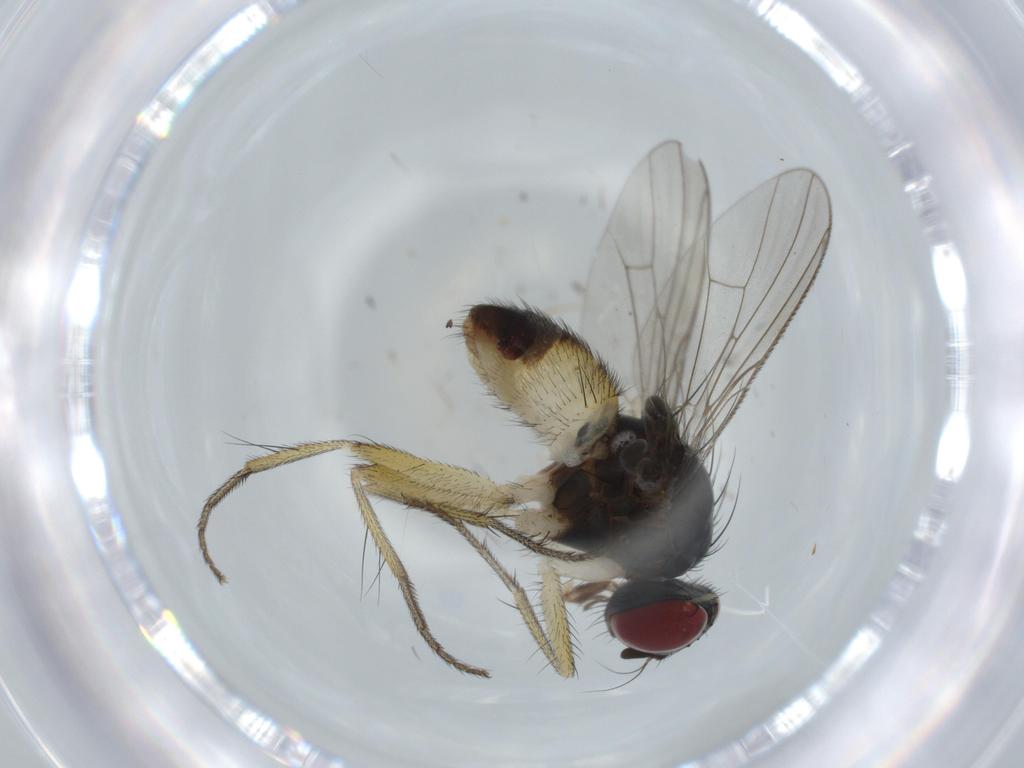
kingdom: Animalia
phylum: Arthropoda
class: Insecta
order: Diptera
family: Muscidae
